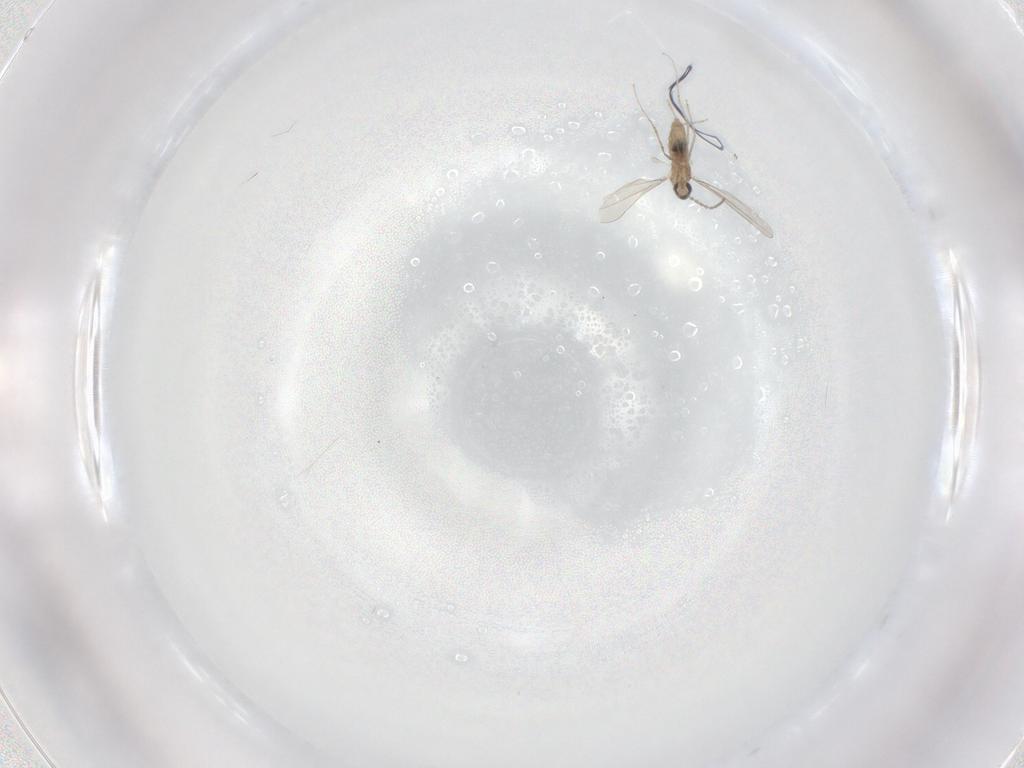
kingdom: Animalia
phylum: Arthropoda
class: Insecta
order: Diptera
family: Cecidomyiidae
